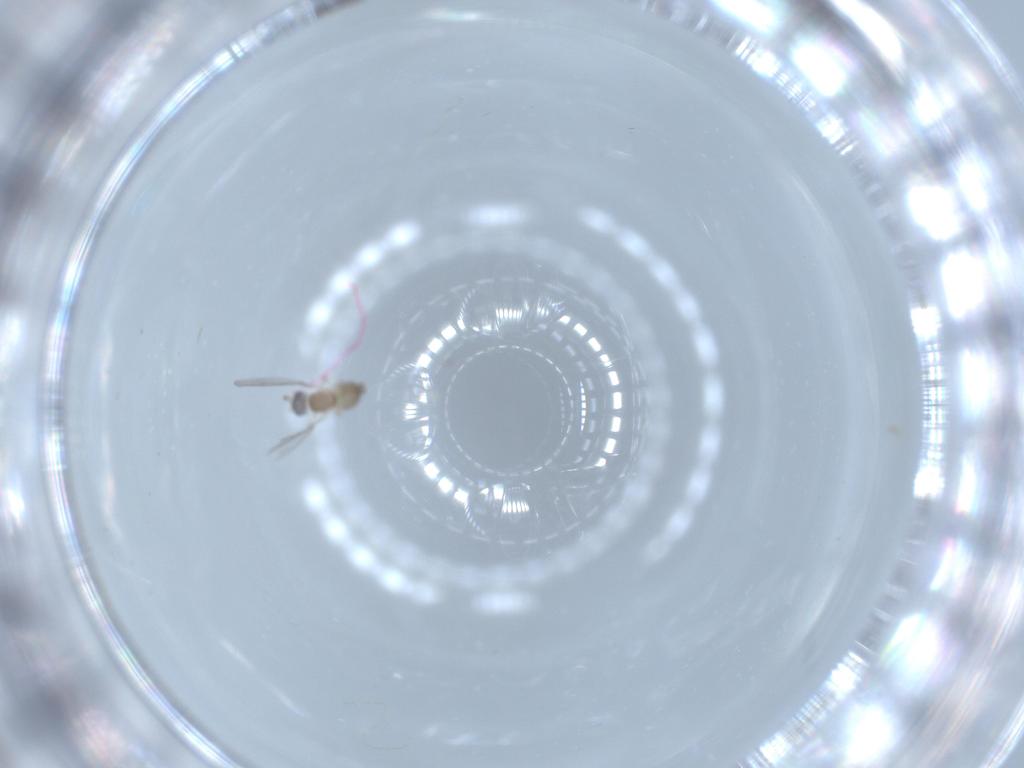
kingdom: Animalia
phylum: Arthropoda
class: Insecta
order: Diptera
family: Cecidomyiidae
